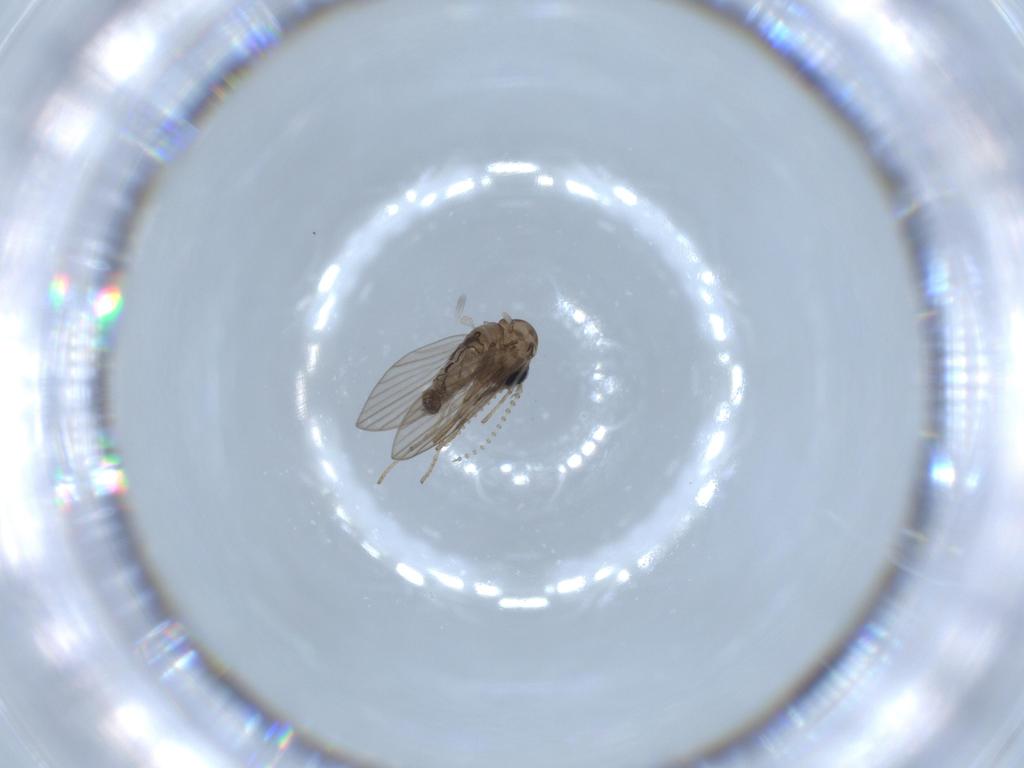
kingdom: Animalia
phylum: Arthropoda
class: Insecta
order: Diptera
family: Psychodidae
